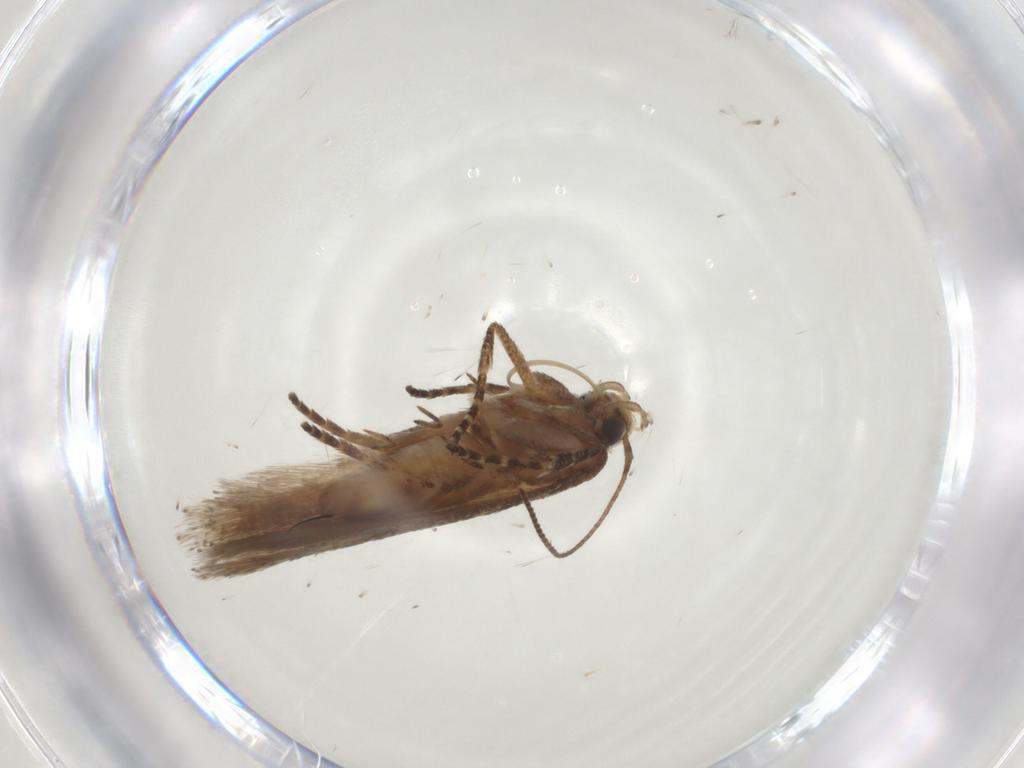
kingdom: Animalia
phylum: Arthropoda
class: Insecta
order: Lepidoptera
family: Gelechiidae
